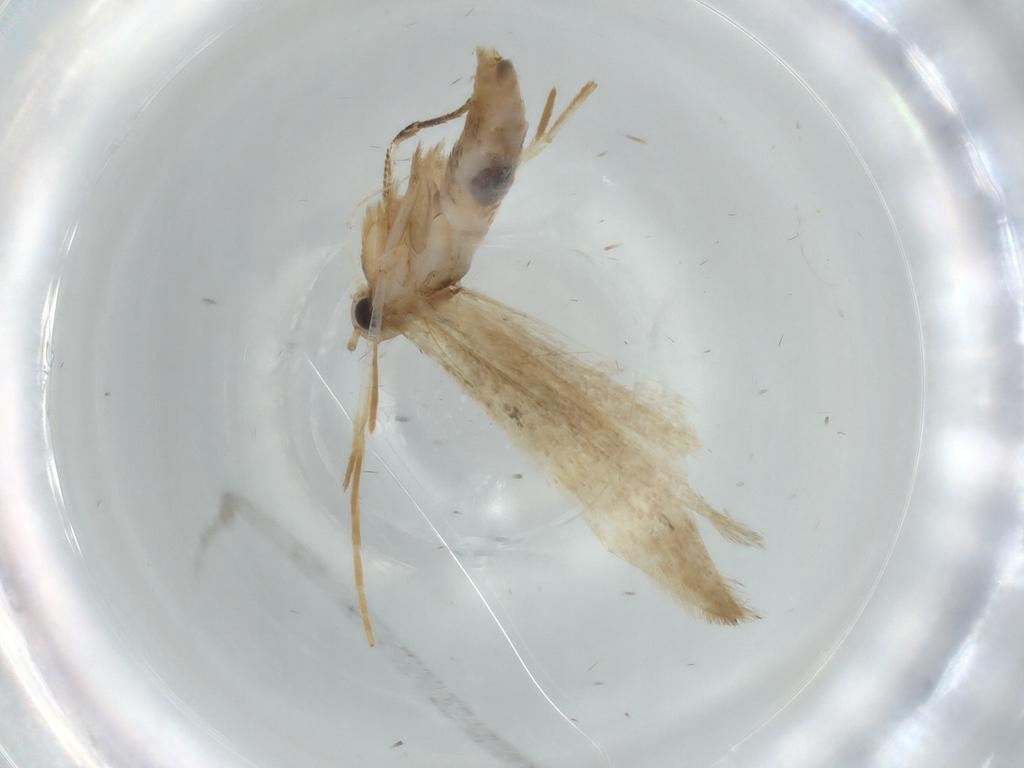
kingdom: Animalia
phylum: Arthropoda
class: Insecta
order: Lepidoptera
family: Gelechiidae
